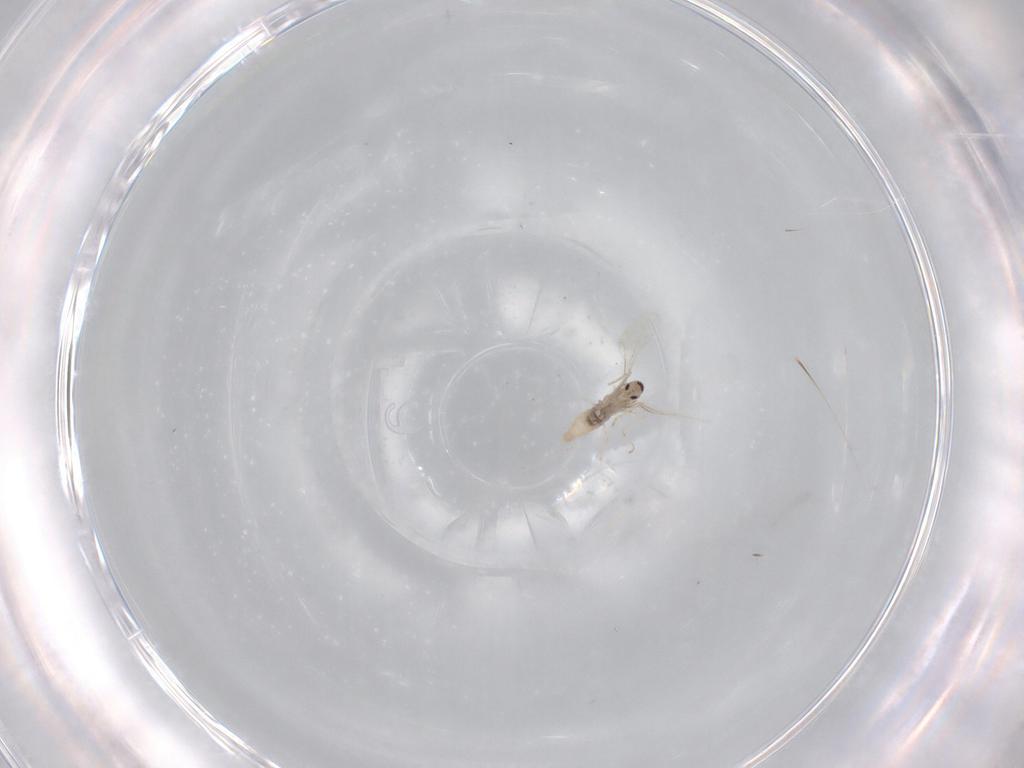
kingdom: Animalia
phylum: Arthropoda
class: Insecta
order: Diptera
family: Cecidomyiidae
